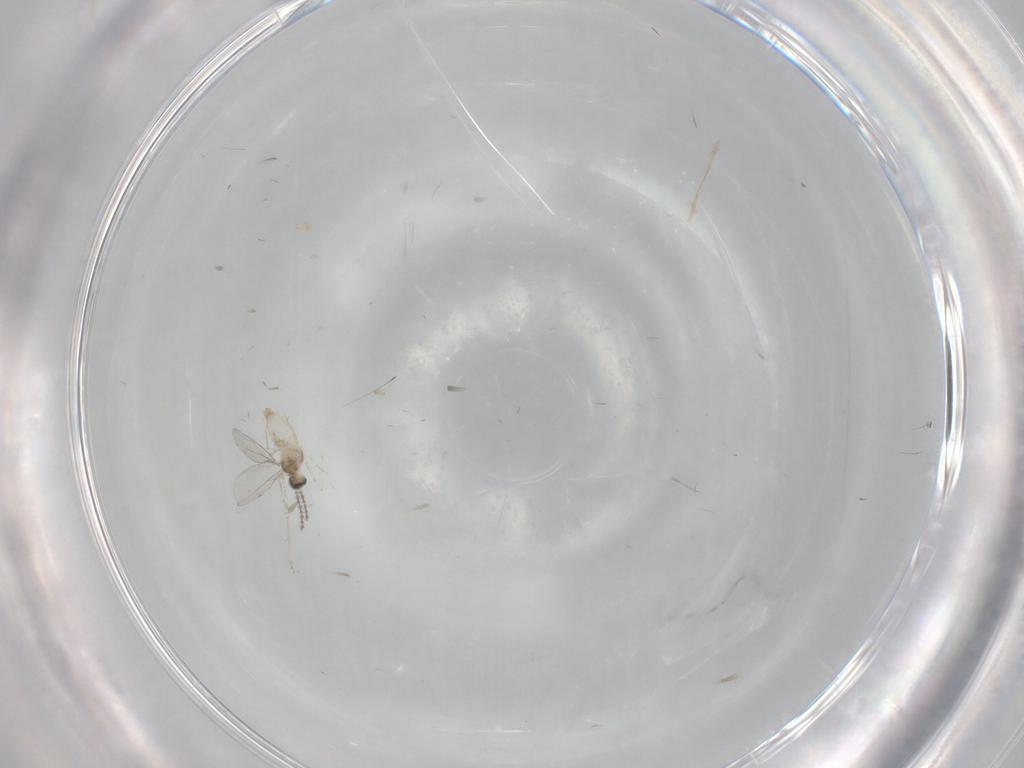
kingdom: Animalia
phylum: Arthropoda
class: Insecta
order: Diptera
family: Cecidomyiidae
